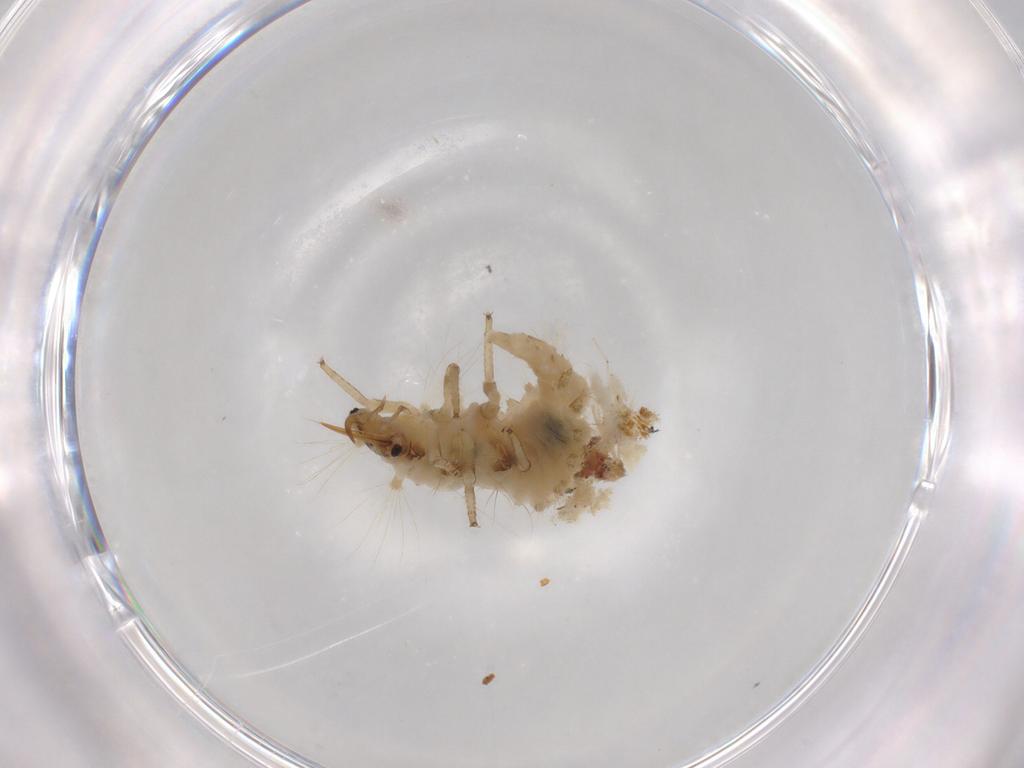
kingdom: Animalia
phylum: Arthropoda
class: Insecta
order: Neuroptera
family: Chrysopidae
